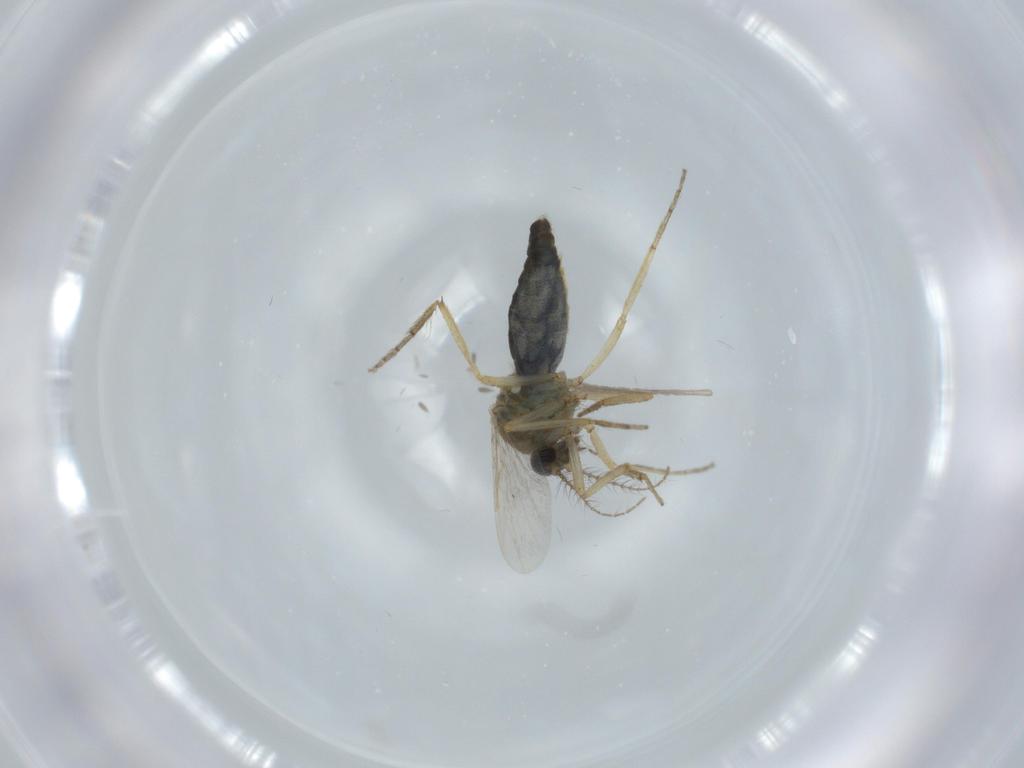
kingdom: Animalia
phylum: Arthropoda
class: Insecta
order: Diptera
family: Ceratopogonidae
